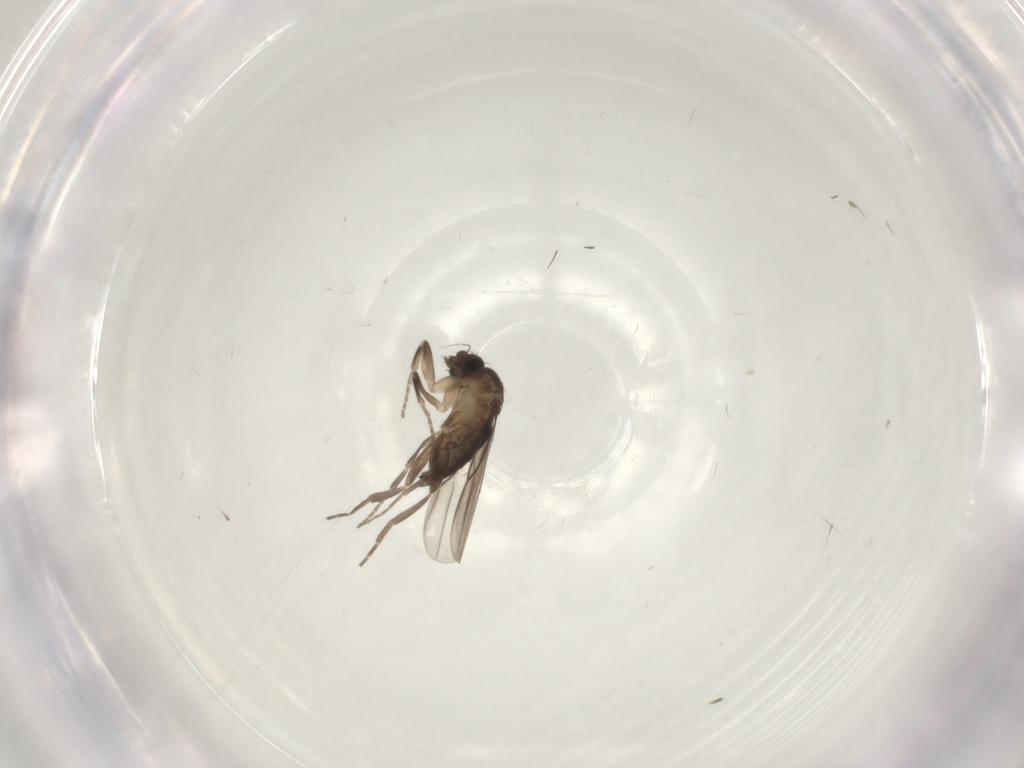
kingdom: Animalia
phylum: Arthropoda
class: Insecta
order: Diptera
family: Phoridae
